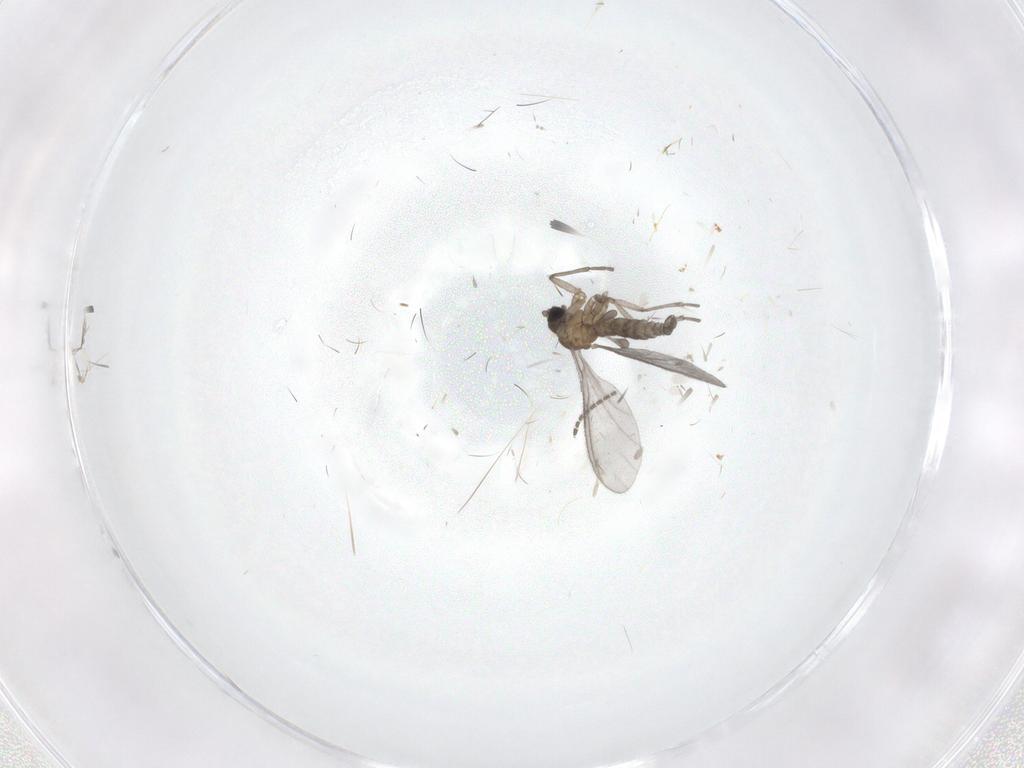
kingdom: Animalia
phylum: Arthropoda
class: Insecta
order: Diptera
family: Sciaridae
